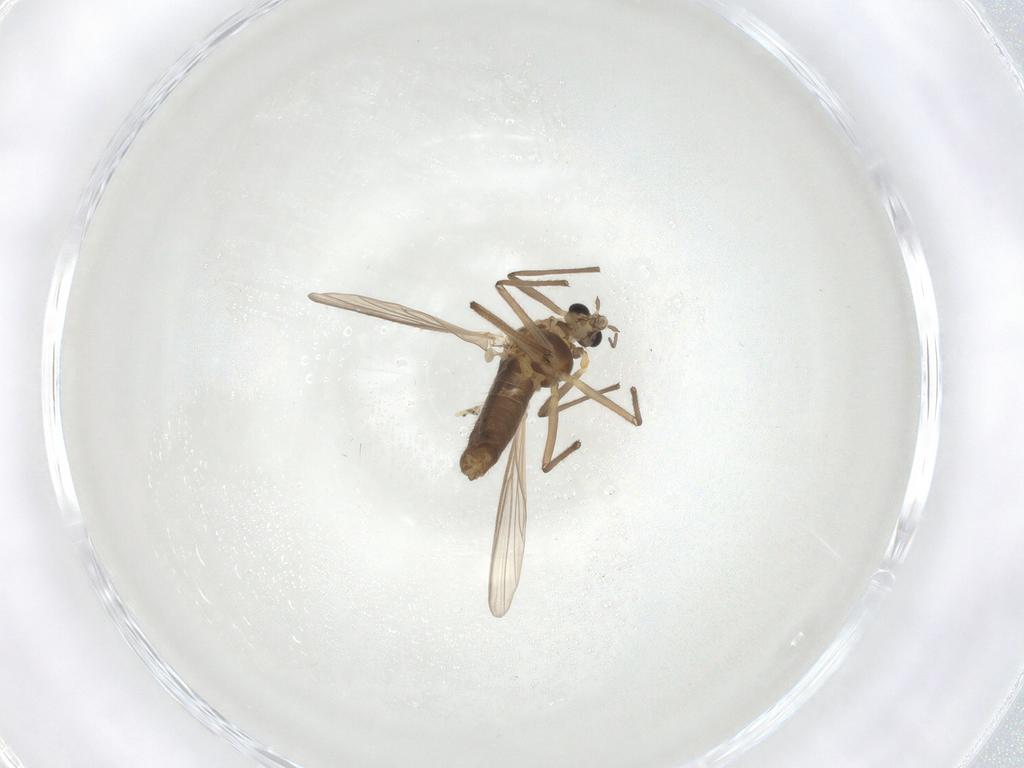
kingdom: Animalia
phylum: Arthropoda
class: Insecta
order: Diptera
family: Chironomidae
